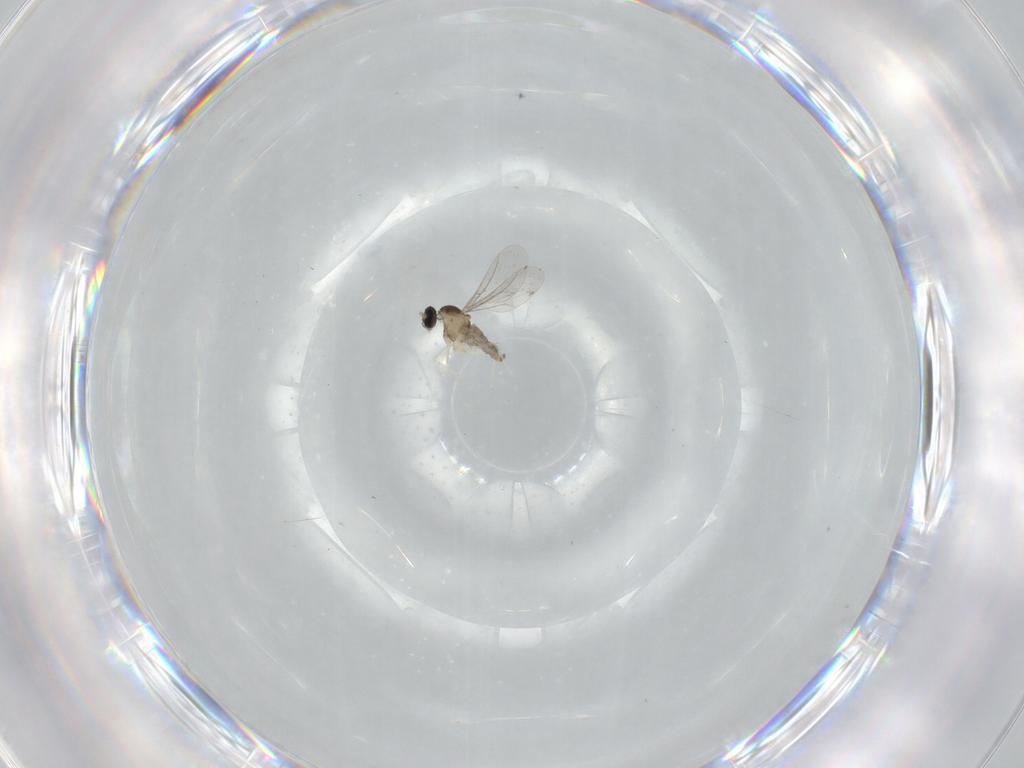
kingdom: Animalia
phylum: Arthropoda
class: Insecta
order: Diptera
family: Cecidomyiidae
